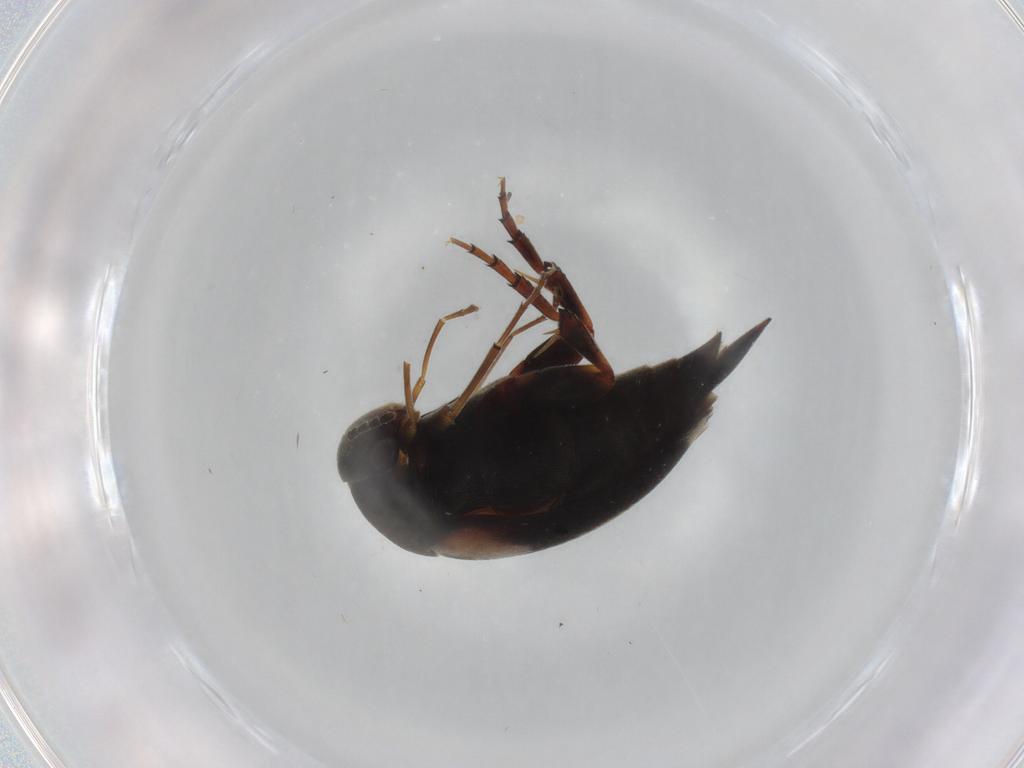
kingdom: Animalia
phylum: Arthropoda
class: Insecta
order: Coleoptera
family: Mordellidae
